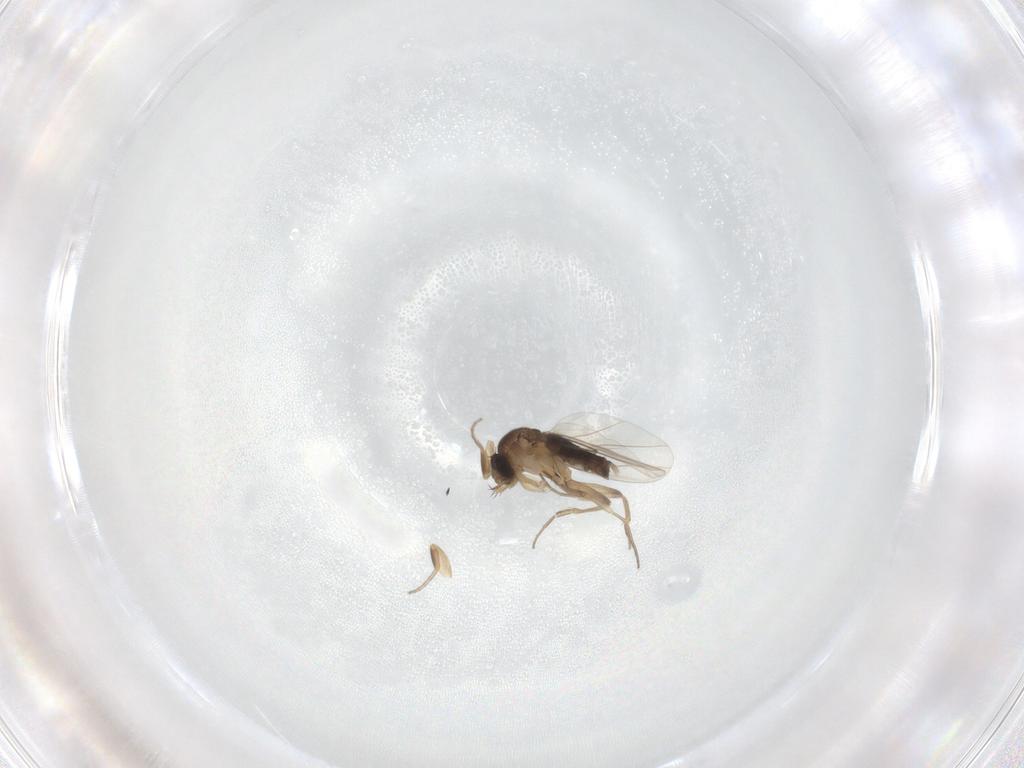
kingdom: Animalia
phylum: Arthropoda
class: Insecta
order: Diptera
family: Phoridae
